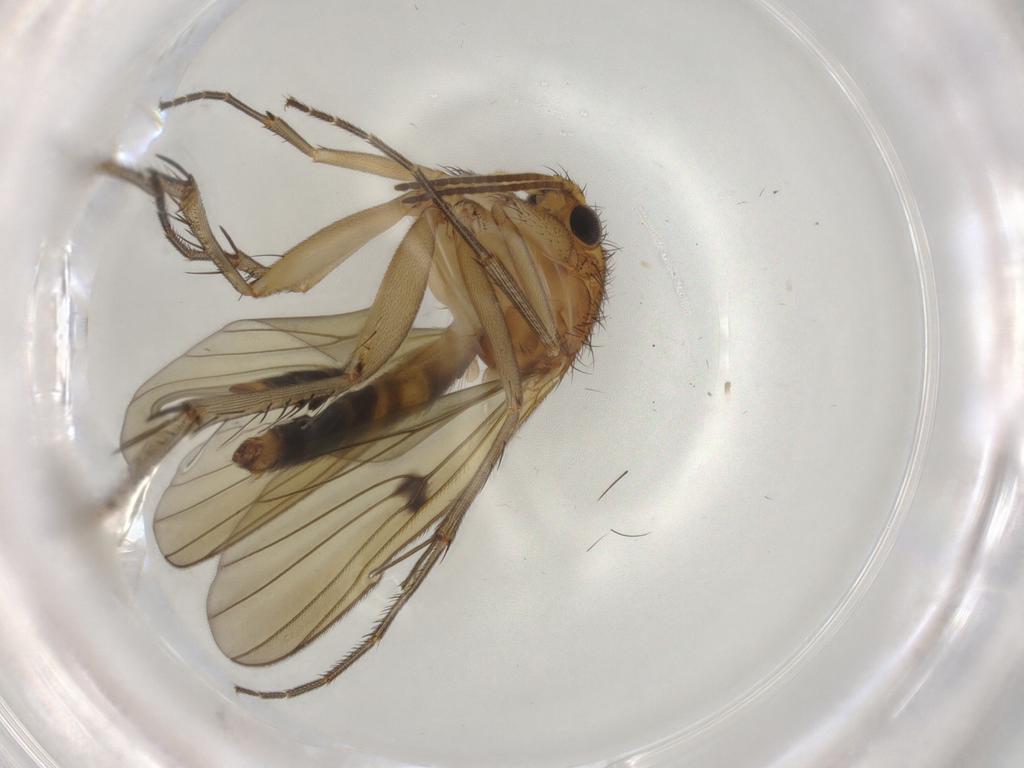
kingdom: Animalia
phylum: Arthropoda
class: Insecta
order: Diptera
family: Mycetophilidae
